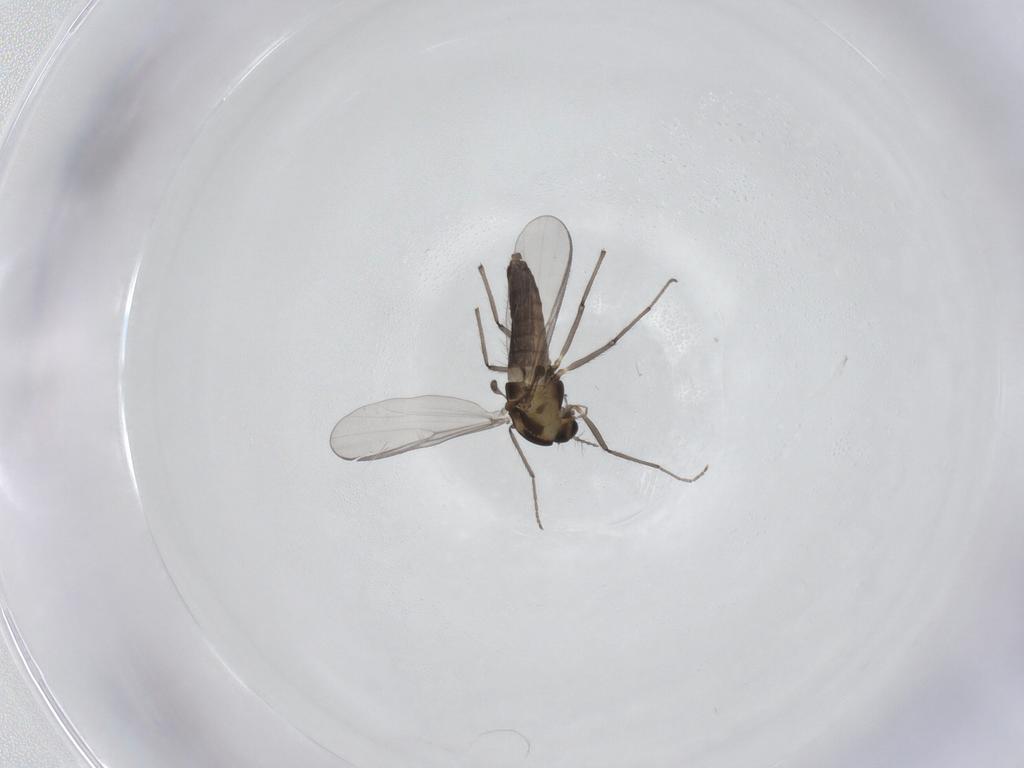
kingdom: Animalia
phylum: Arthropoda
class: Insecta
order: Diptera
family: Chironomidae
